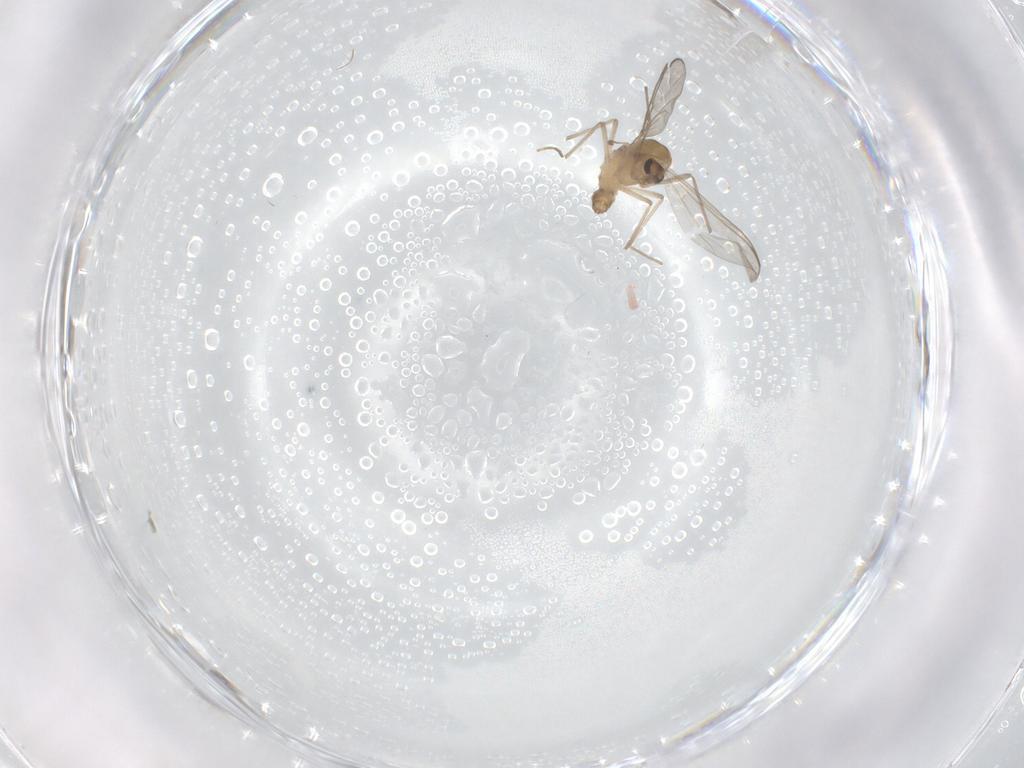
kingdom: Animalia
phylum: Arthropoda
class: Insecta
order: Diptera
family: Chironomidae
